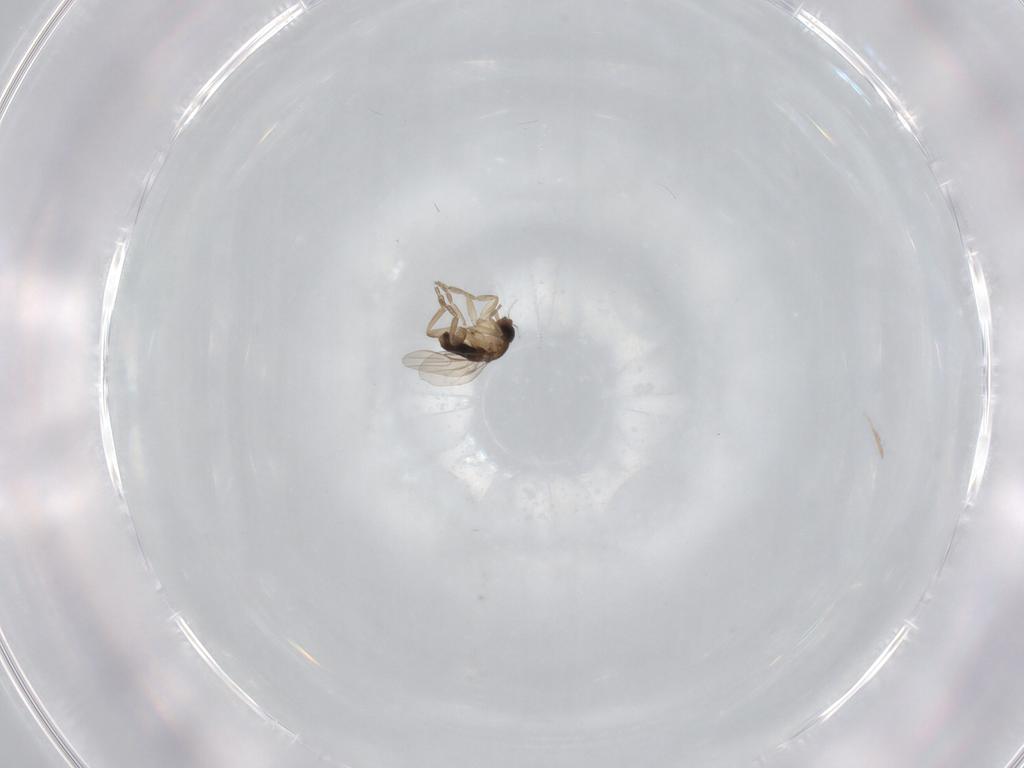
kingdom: Animalia
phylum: Arthropoda
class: Insecta
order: Diptera
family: Phoridae
